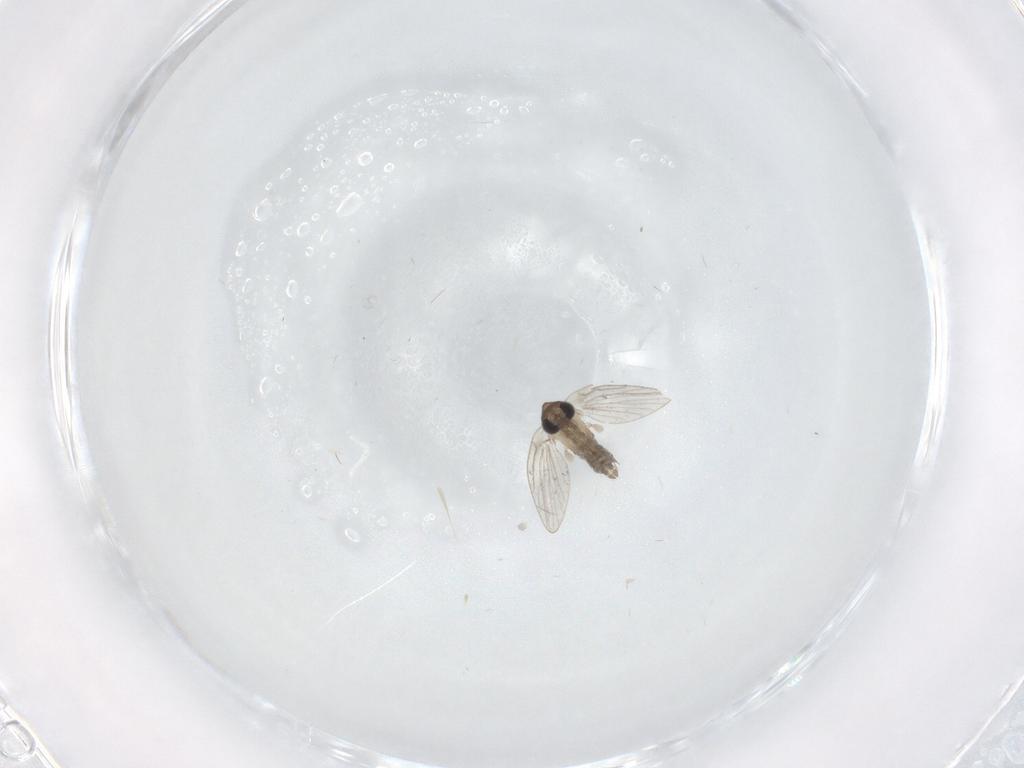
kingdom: Animalia
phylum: Arthropoda
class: Insecta
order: Diptera
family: Psychodidae
